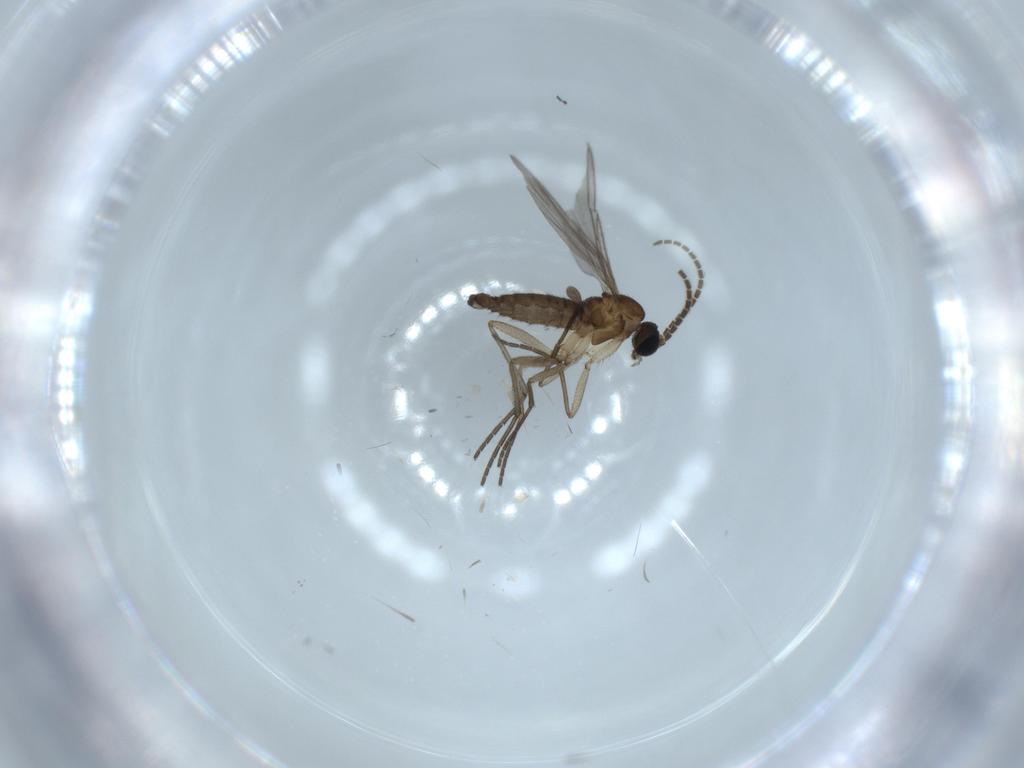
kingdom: Animalia
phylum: Arthropoda
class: Insecta
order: Diptera
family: Sciaridae
